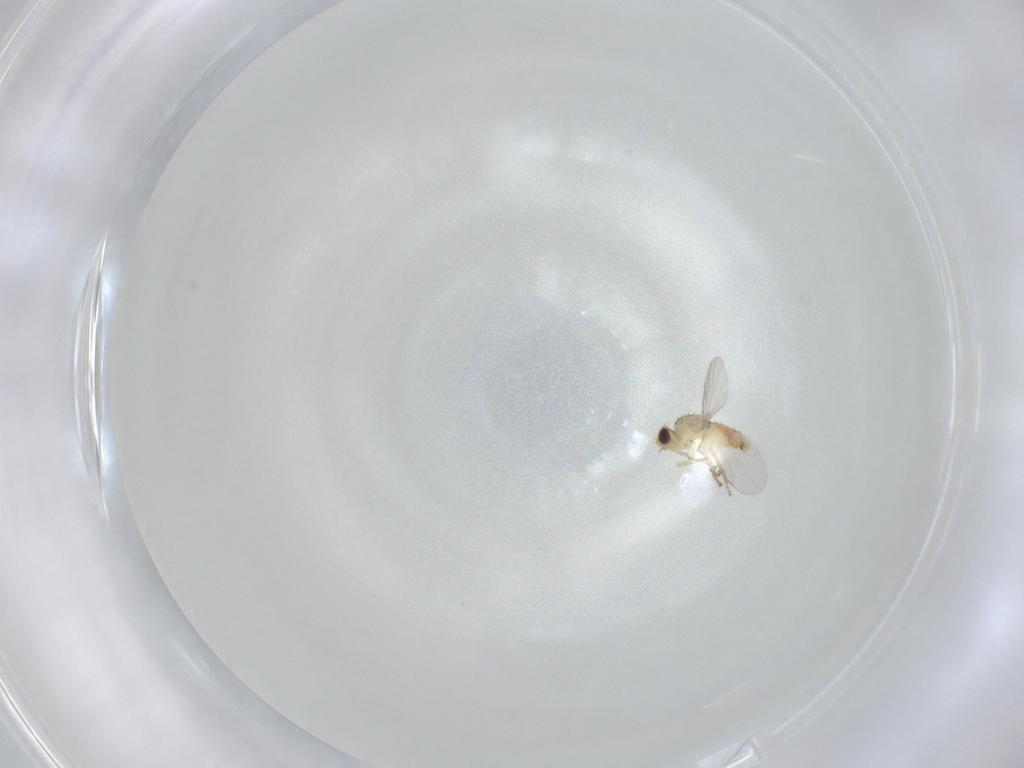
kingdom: Animalia
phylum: Arthropoda
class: Insecta
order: Diptera
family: Agromyzidae
